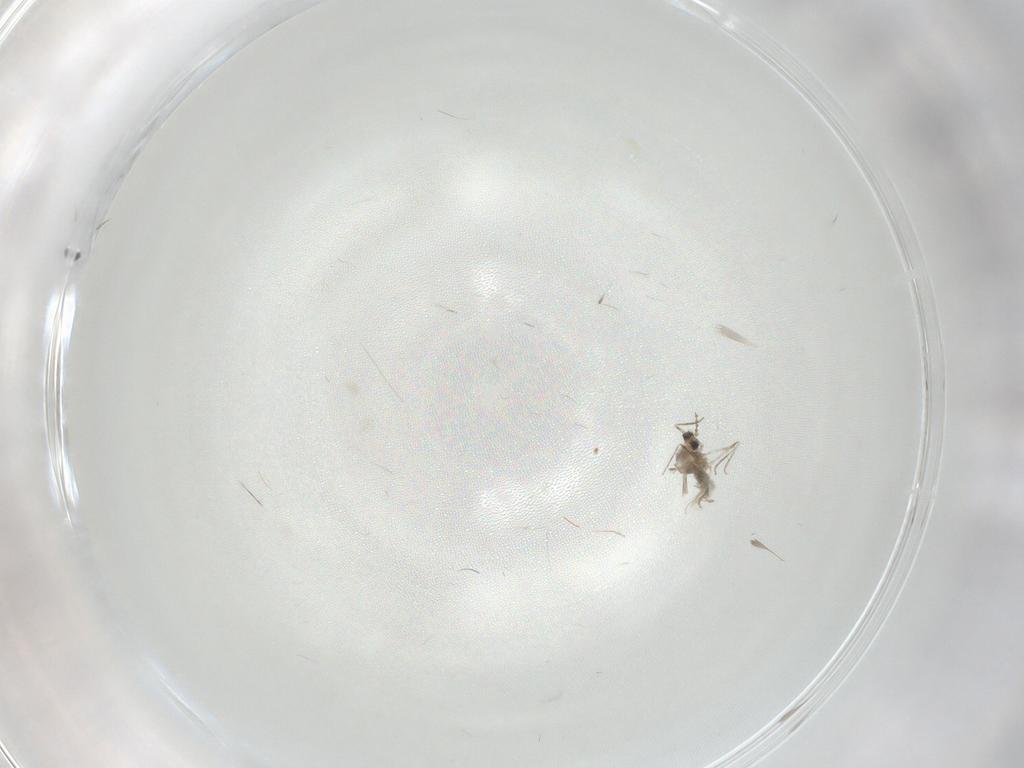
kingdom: Animalia
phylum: Arthropoda
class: Insecta
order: Diptera
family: Cecidomyiidae
